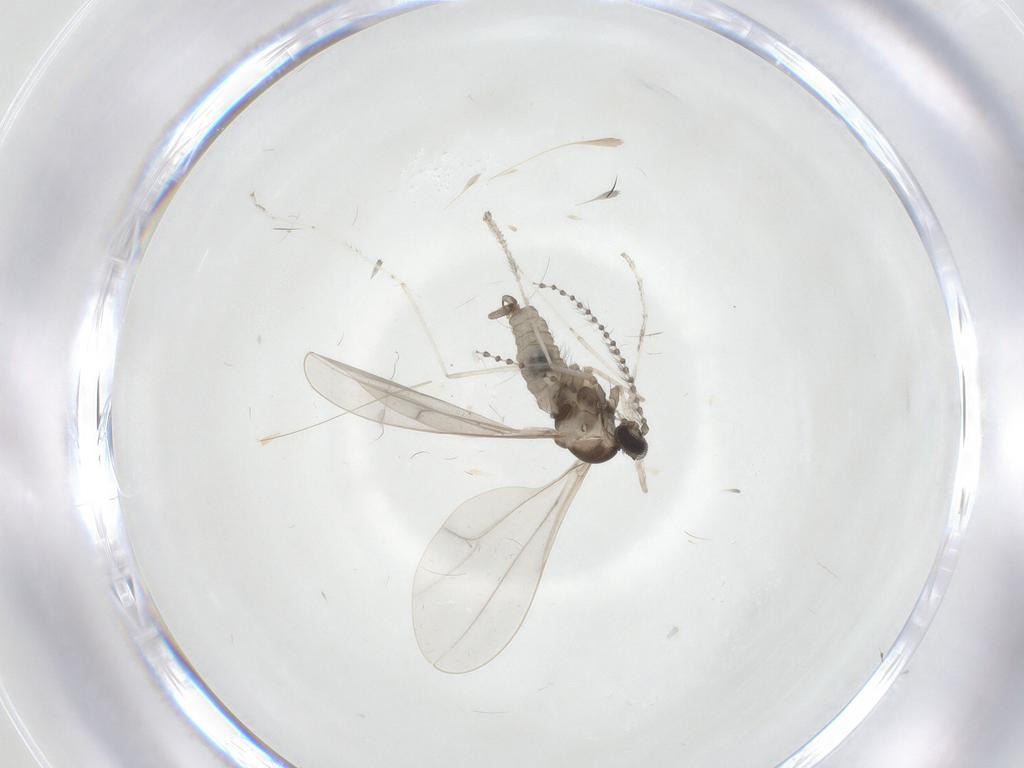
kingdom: Animalia
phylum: Arthropoda
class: Insecta
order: Diptera
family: Cecidomyiidae
